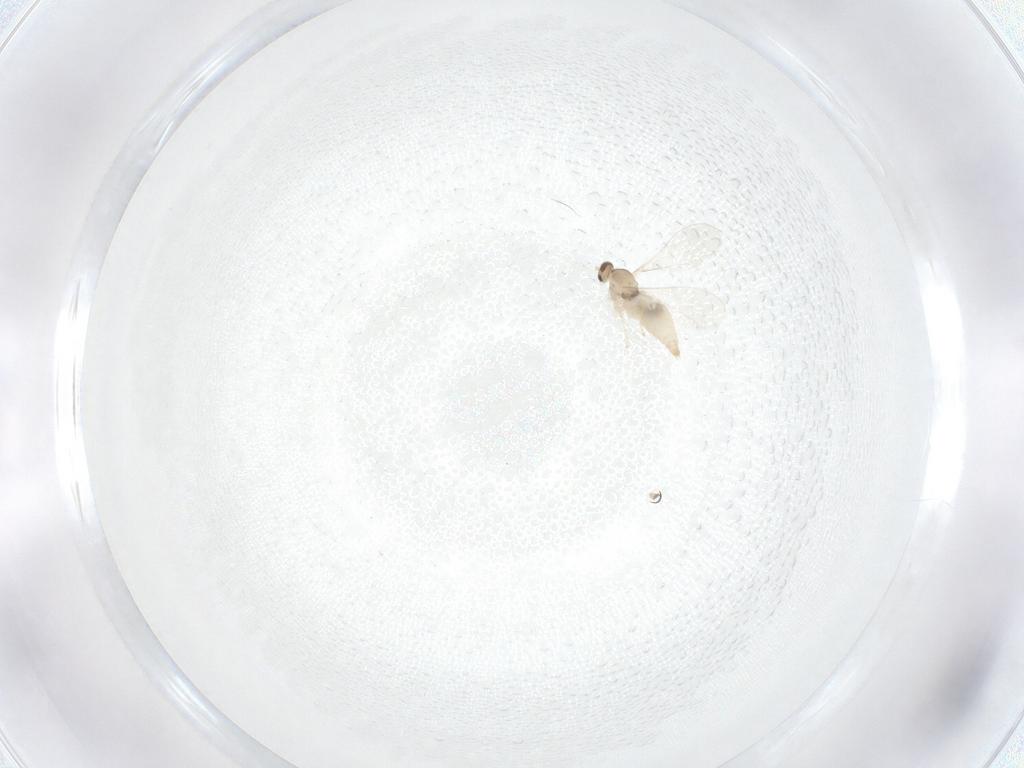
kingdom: Animalia
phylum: Arthropoda
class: Insecta
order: Diptera
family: Cecidomyiidae
